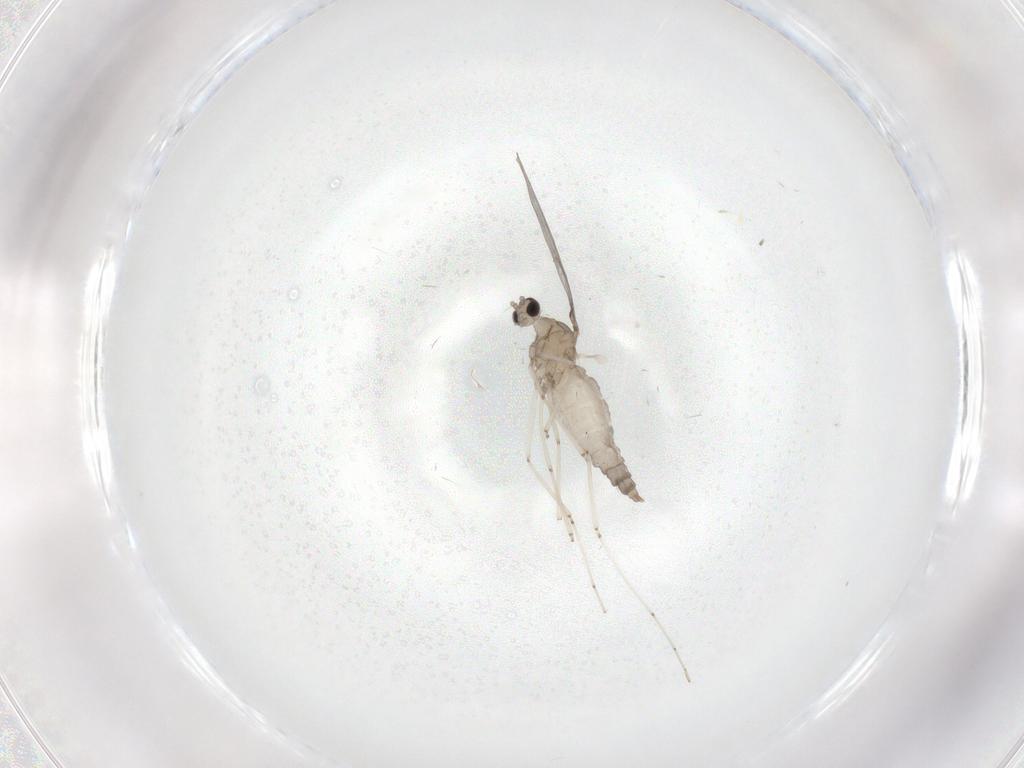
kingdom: Animalia
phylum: Arthropoda
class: Insecta
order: Diptera
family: Cecidomyiidae
